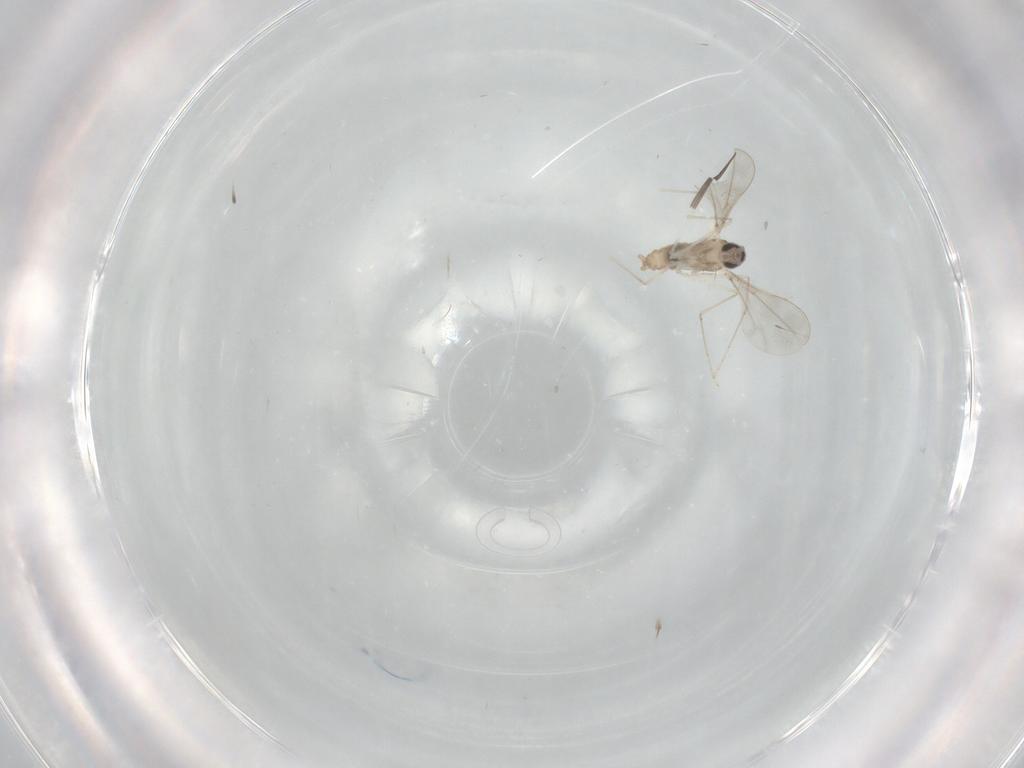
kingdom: Animalia
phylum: Arthropoda
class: Insecta
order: Diptera
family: Cecidomyiidae
